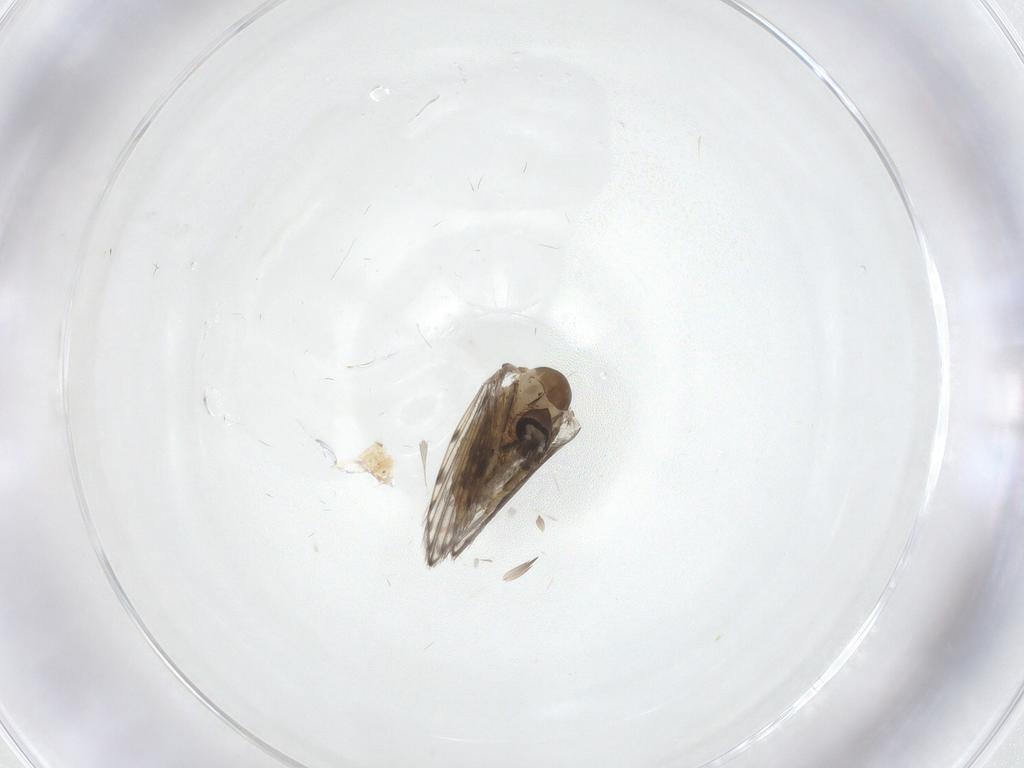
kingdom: Animalia
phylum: Arthropoda
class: Insecta
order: Diptera
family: Psychodidae
